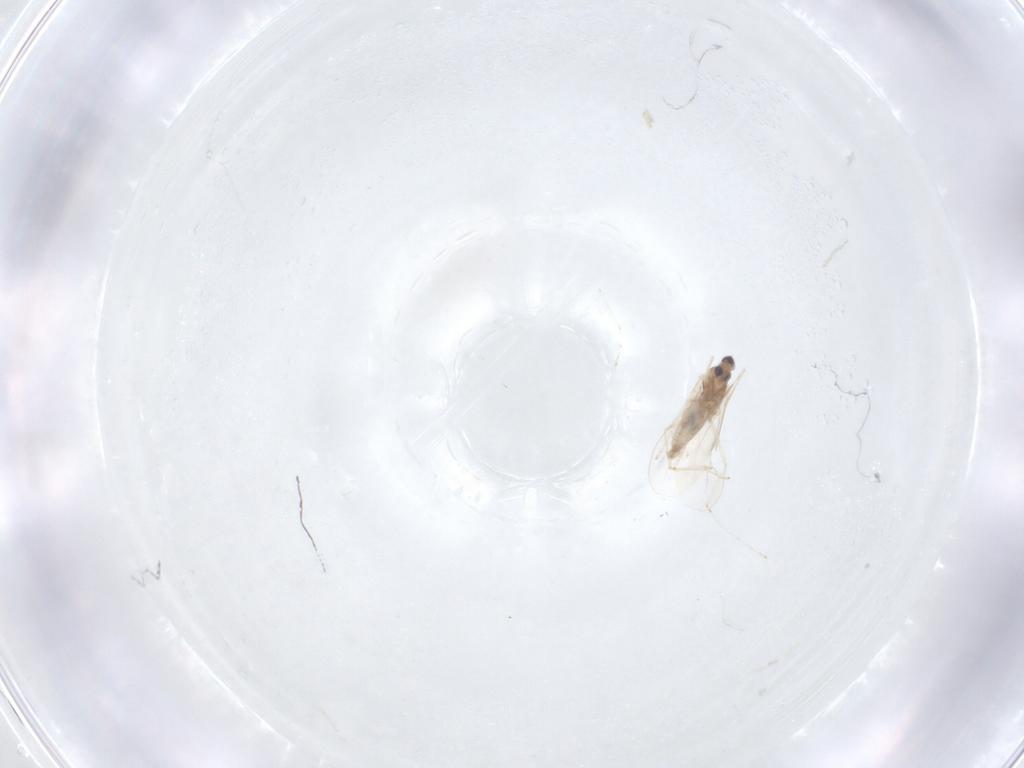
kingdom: Animalia
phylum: Arthropoda
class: Insecta
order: Diptera
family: Cecidomyiidae
